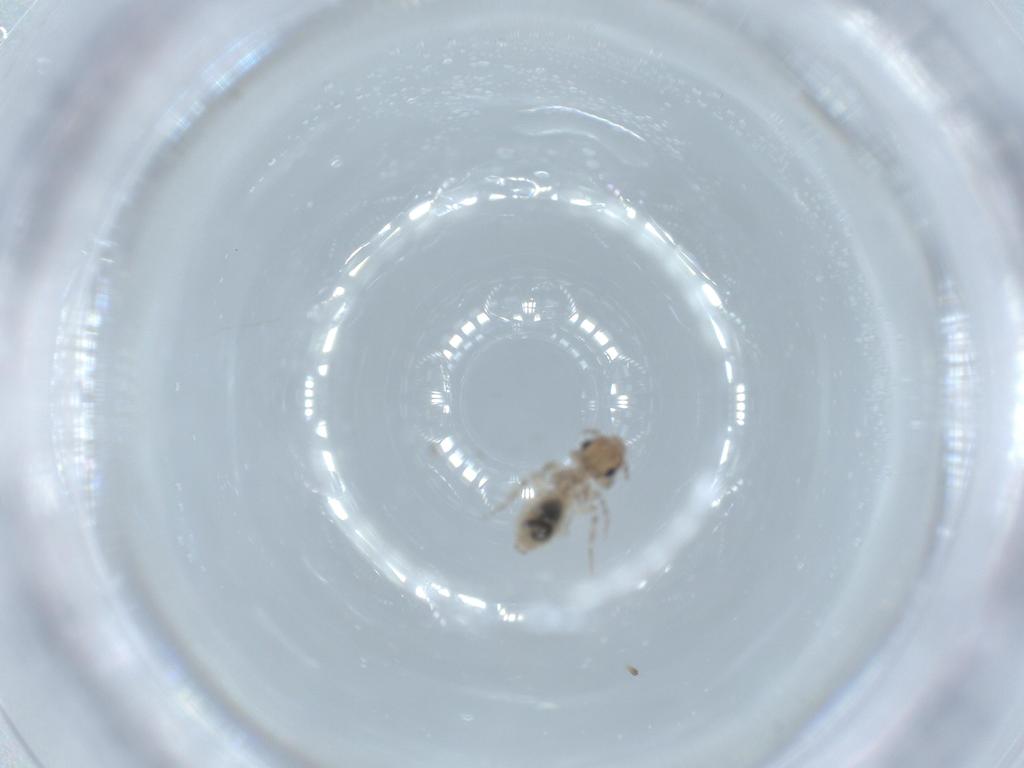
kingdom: Animalia
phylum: Arthropoda
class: Insecta
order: Psocodea
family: Lepidopsocidae
